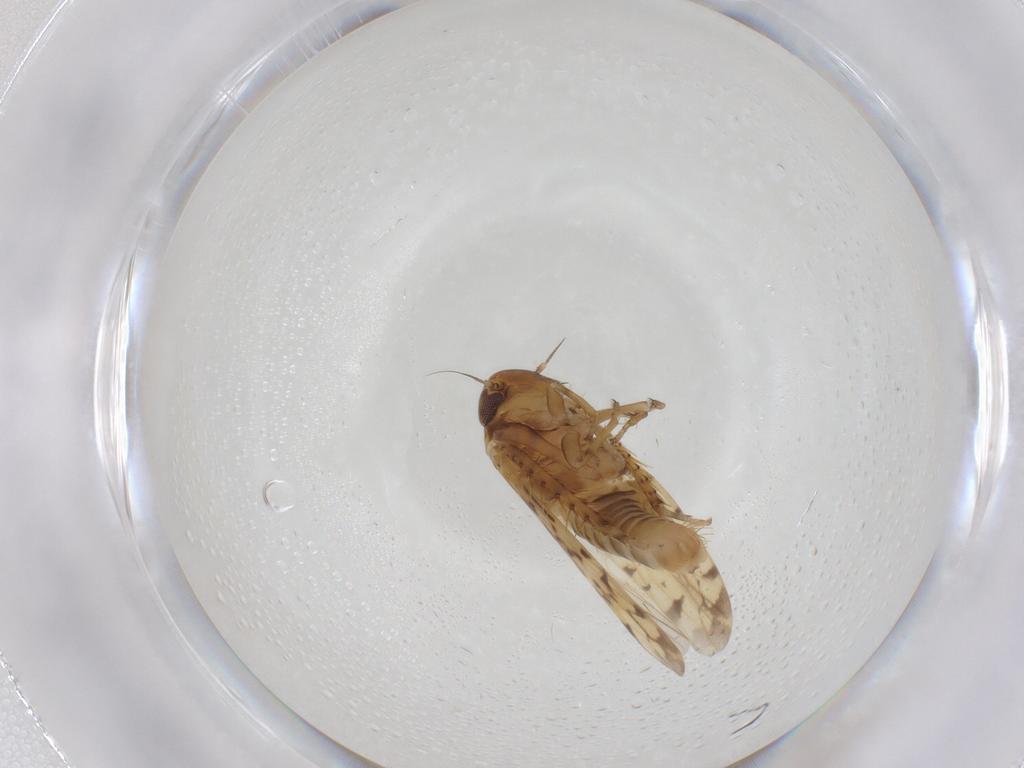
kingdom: Animalia
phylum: Arthropoda
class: Insecta
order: Hemiptera
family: Cicadellidae
